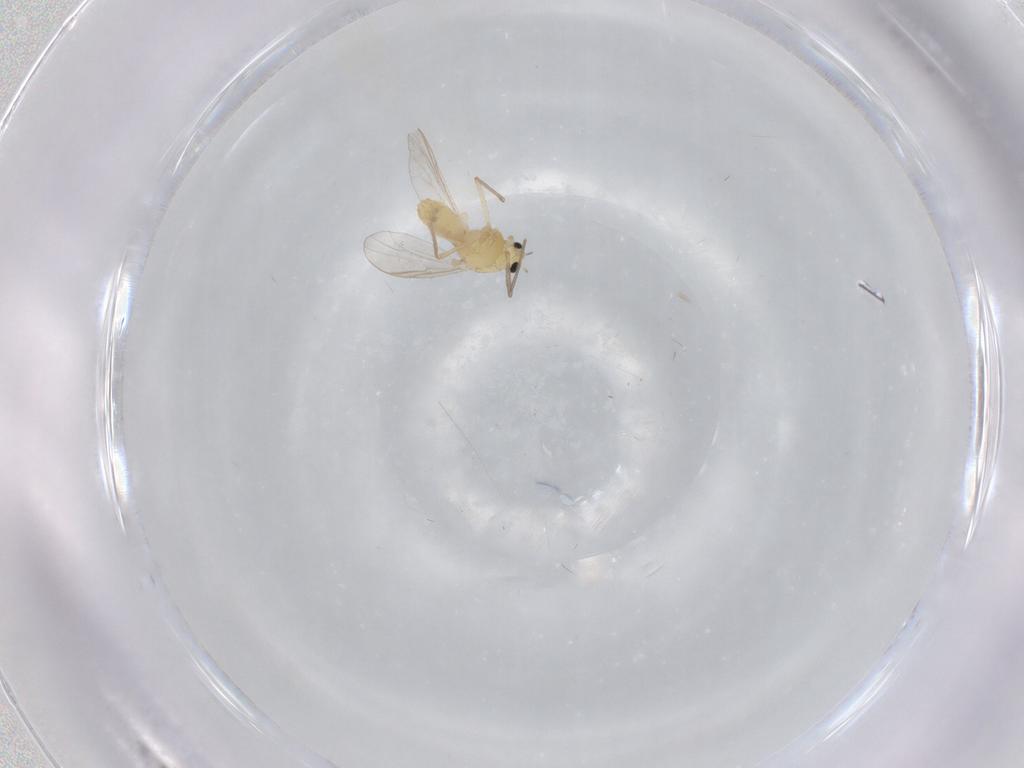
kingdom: Animalia
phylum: Arthropoda
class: Insecta
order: Diptera
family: Chironomidae
